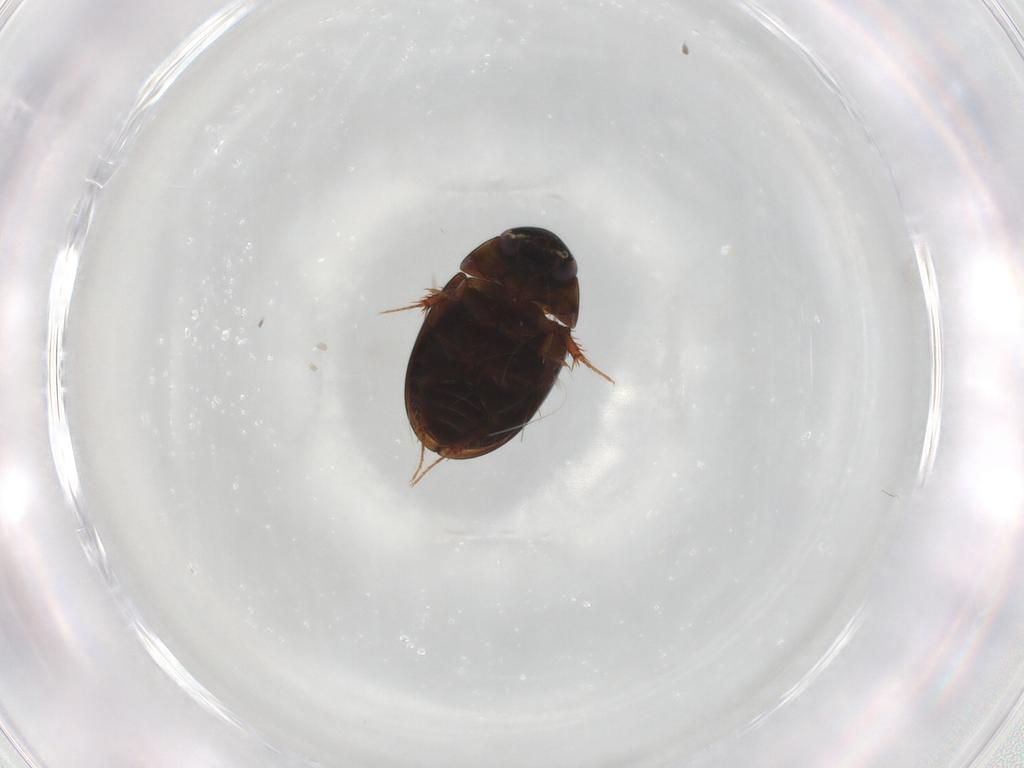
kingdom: Animalia
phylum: Arthropoda
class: Insecta
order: Coleoptera
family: Hydrophilidae
